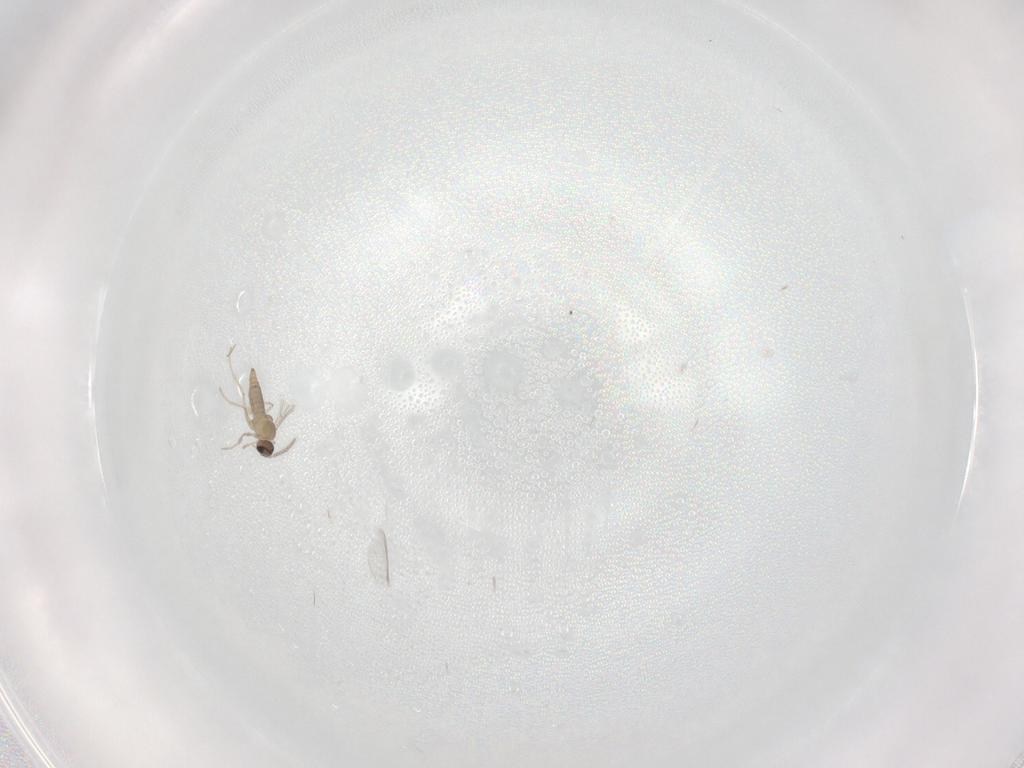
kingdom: Animalia
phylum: Arthropoda
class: Insecta
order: Diptera
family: Cecidomyiidae
